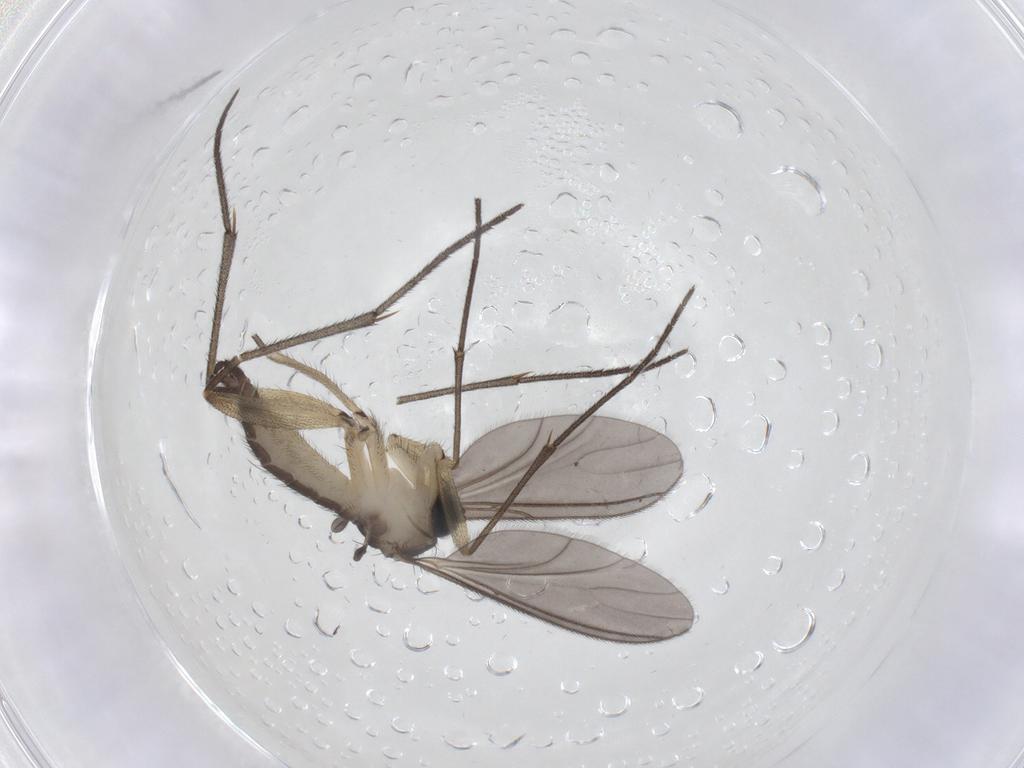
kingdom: Animalia
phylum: Arthropoda
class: Insecta
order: Diptera
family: Sciaridae
